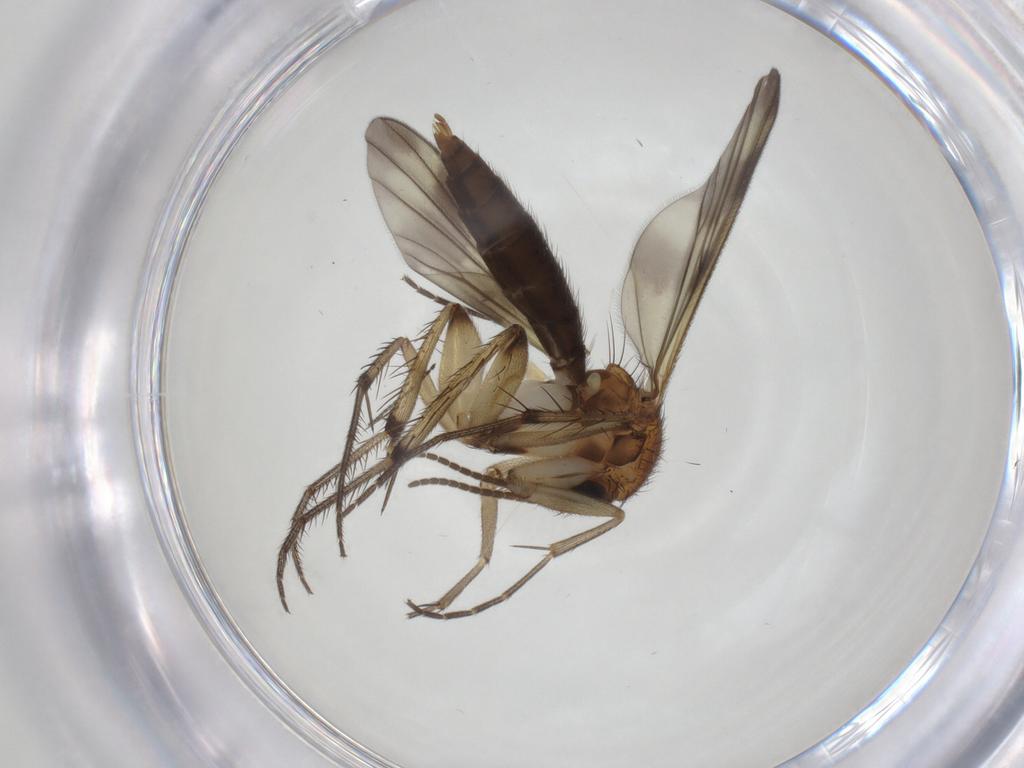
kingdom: Animalia
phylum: Arthropoda
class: Insecta
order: Diptera
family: Mycetophilidae
